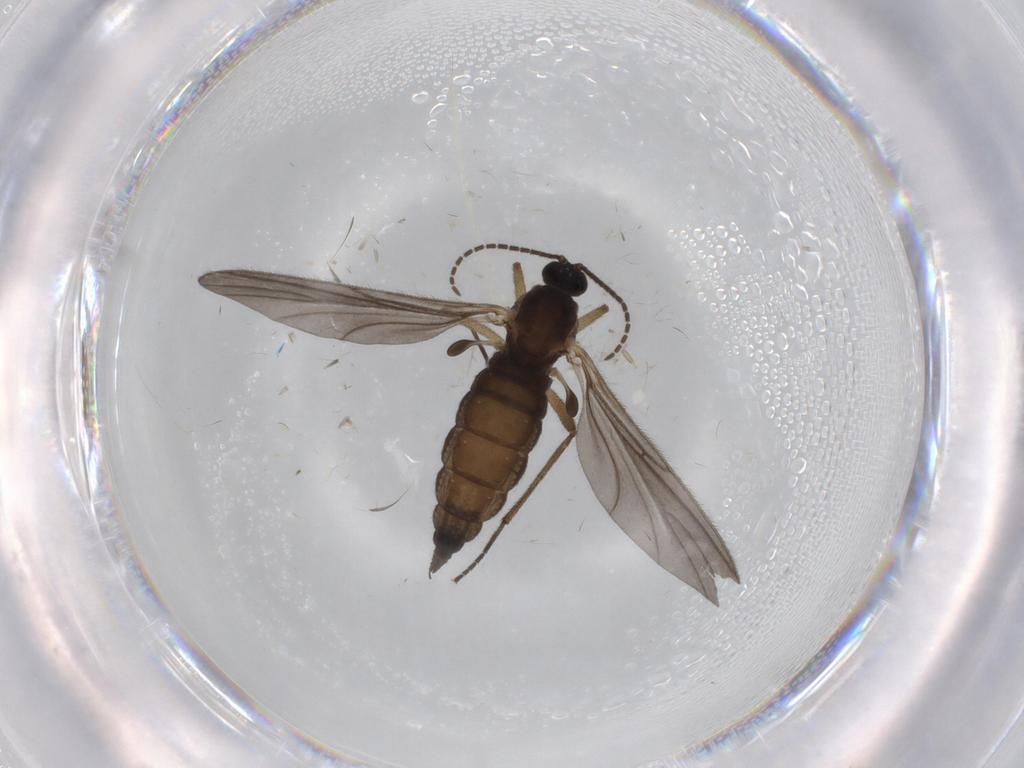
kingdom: Animalia
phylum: Arthropoda
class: Insecta
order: Diptera
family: Sciaridae
